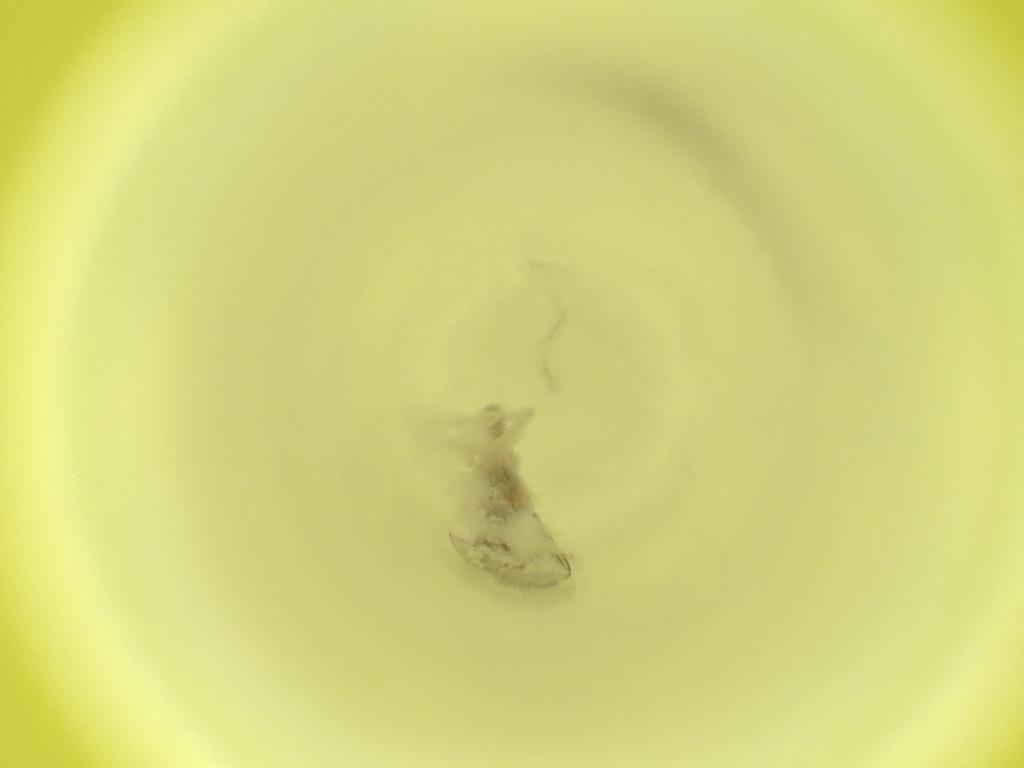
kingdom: Animalia
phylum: Arthropoda
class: Insecta
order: Diptera
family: Cecidomyiidae
